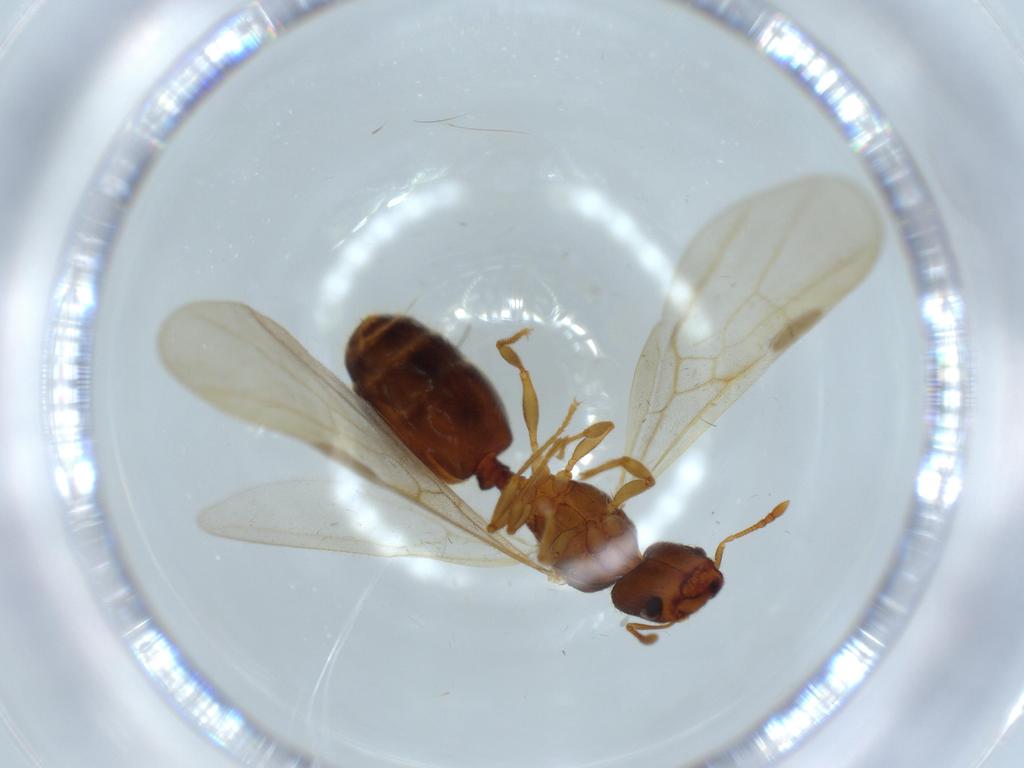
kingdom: Animalia
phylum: Arthropoda
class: Insecta
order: Hymenoptera
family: Formicidae
